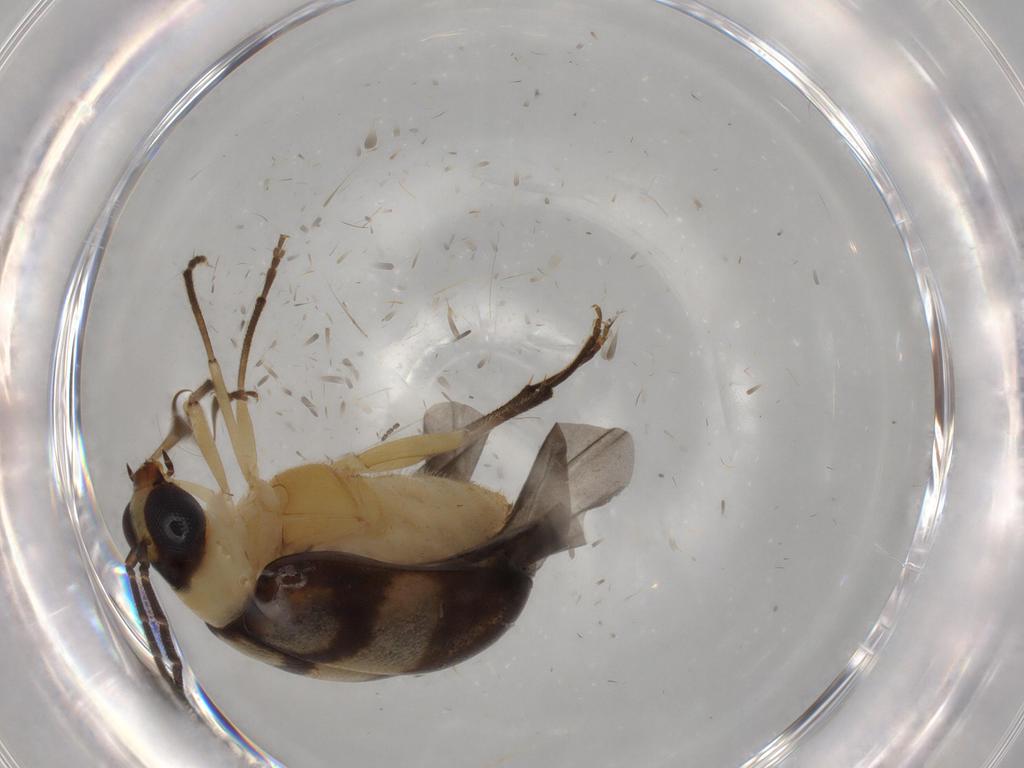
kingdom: Animalia
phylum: Arthropoda
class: Insecta
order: Coleoptera
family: Chrysomelidae
